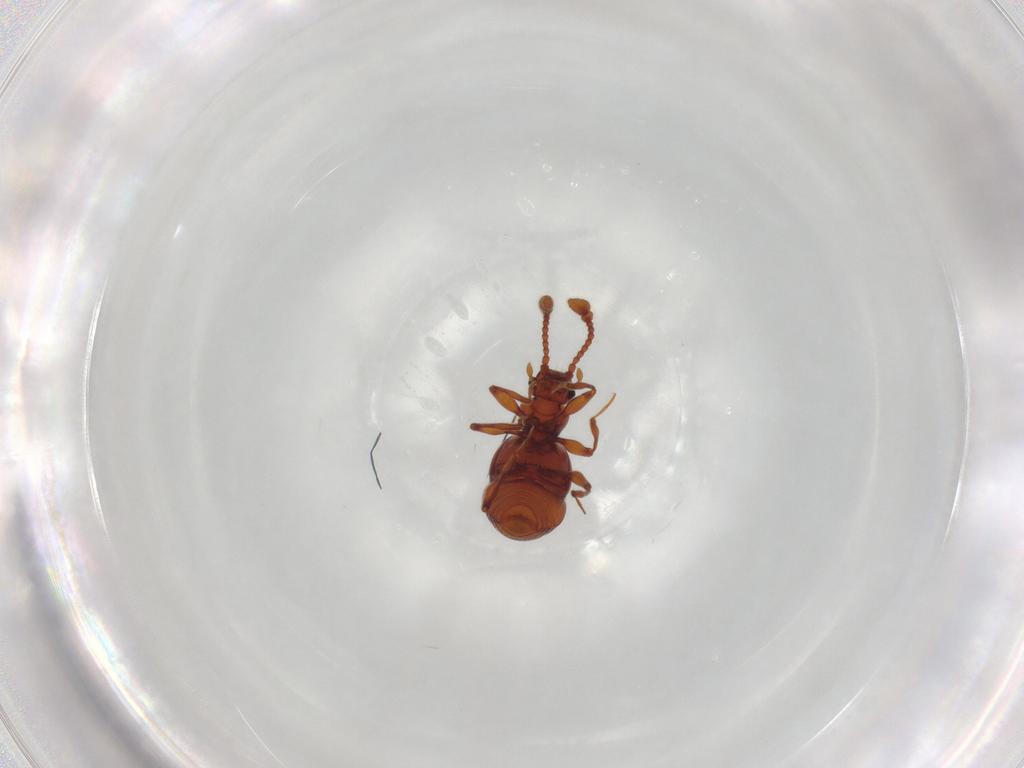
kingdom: Animalia
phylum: Arthropoda
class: Insecta
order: Coleoptera
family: Staphylinidae
